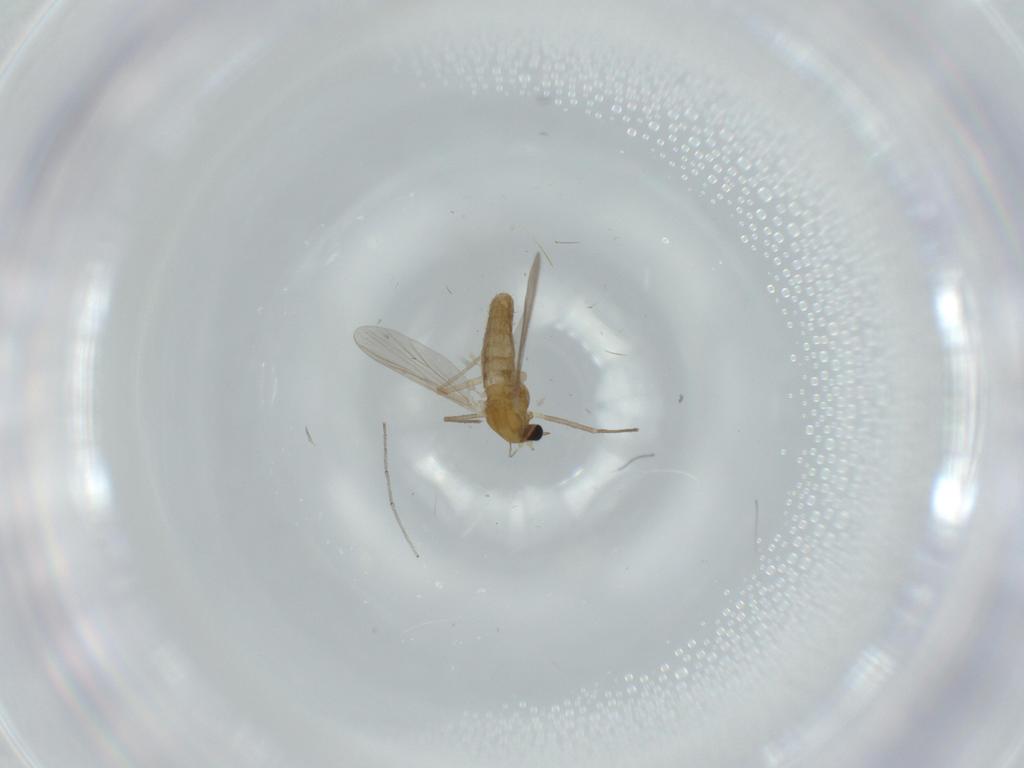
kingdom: Animalia
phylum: Arthropoda
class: Insecta
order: Diptera
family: Chironomidae
